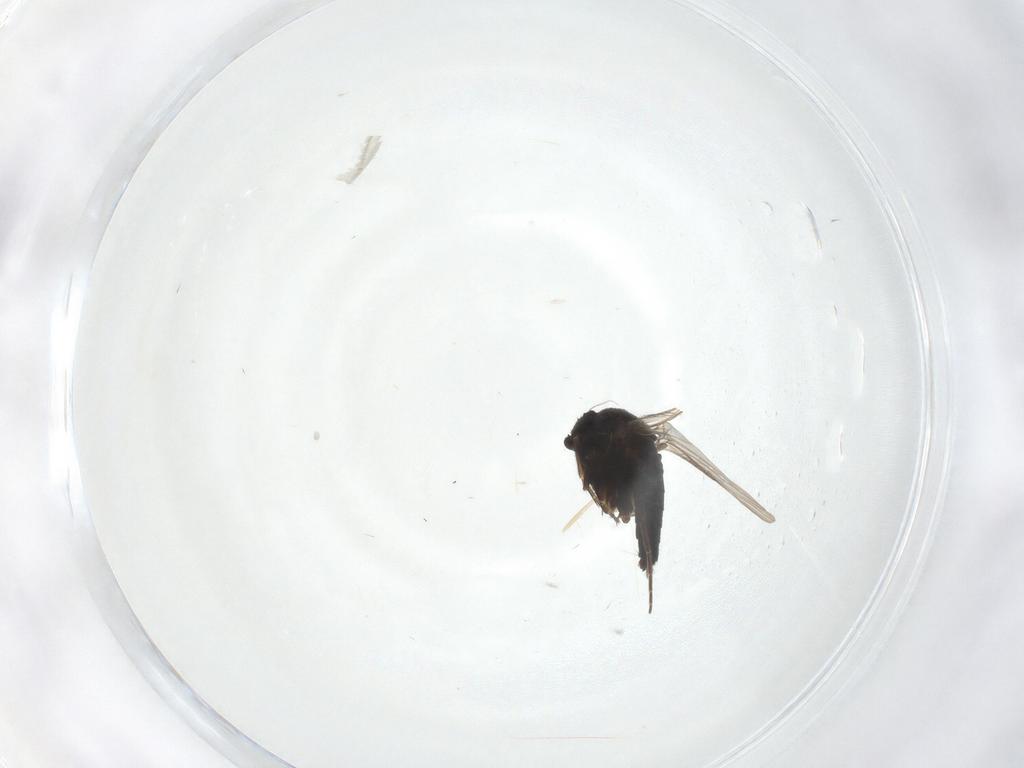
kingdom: Animalia
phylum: Arthropoda
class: Insecta
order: Diptera
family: Phoridae
